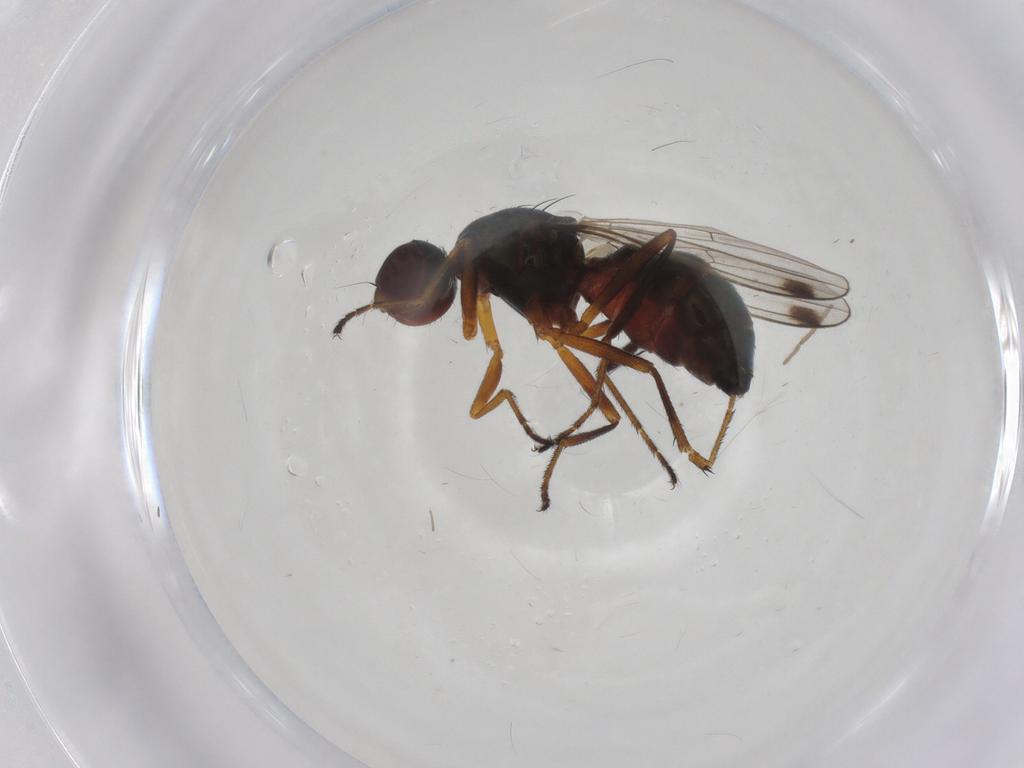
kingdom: Animalia
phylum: Arthropoda
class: Insecta
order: Diptera
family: Sepsidae
